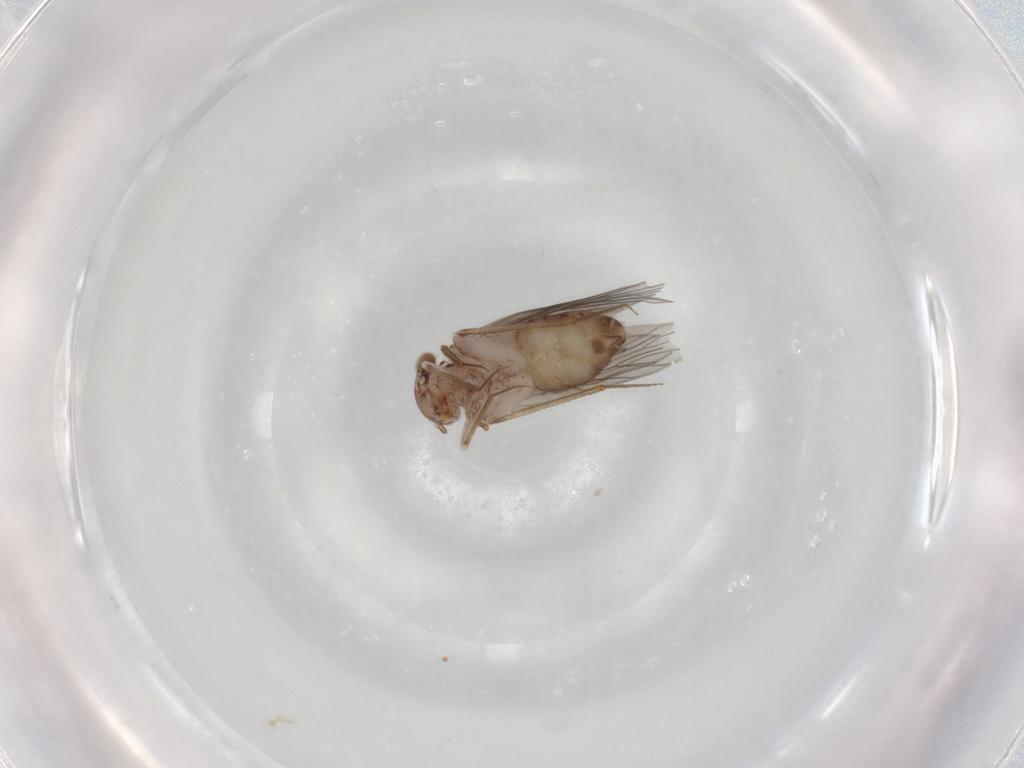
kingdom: Animalia
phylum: Arthropoda
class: Insecta
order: Psocodea
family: Lepidopsocidae
